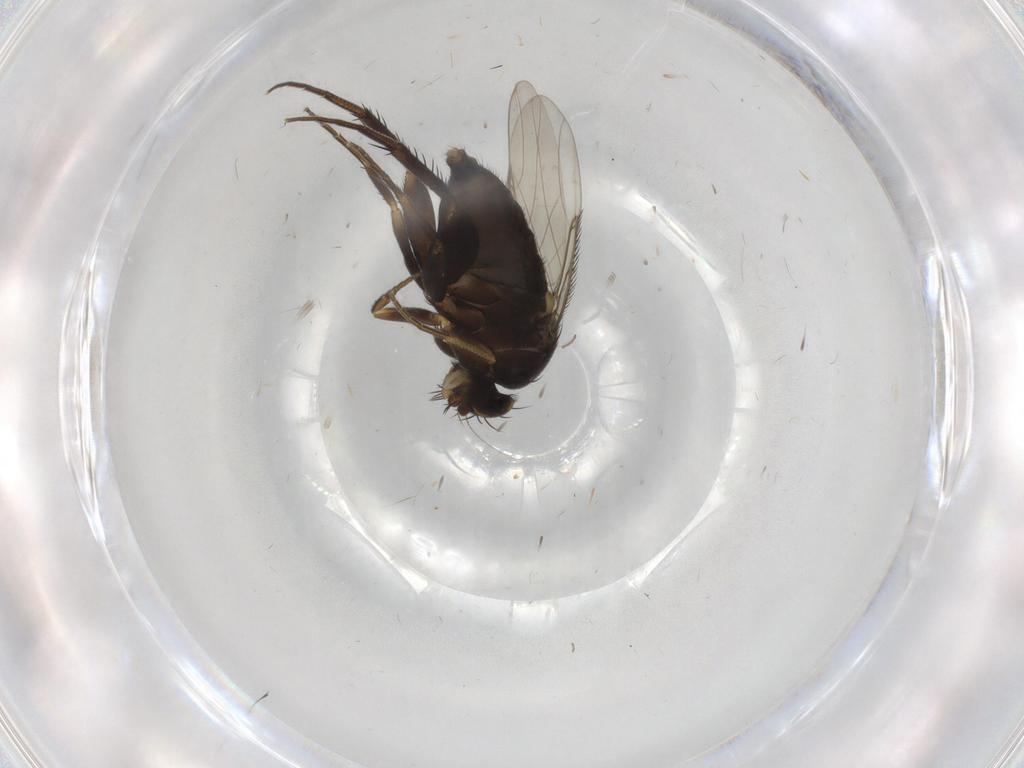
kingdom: Animalia
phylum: Arthropoda
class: Insecta
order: Diptera
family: Phoridae
